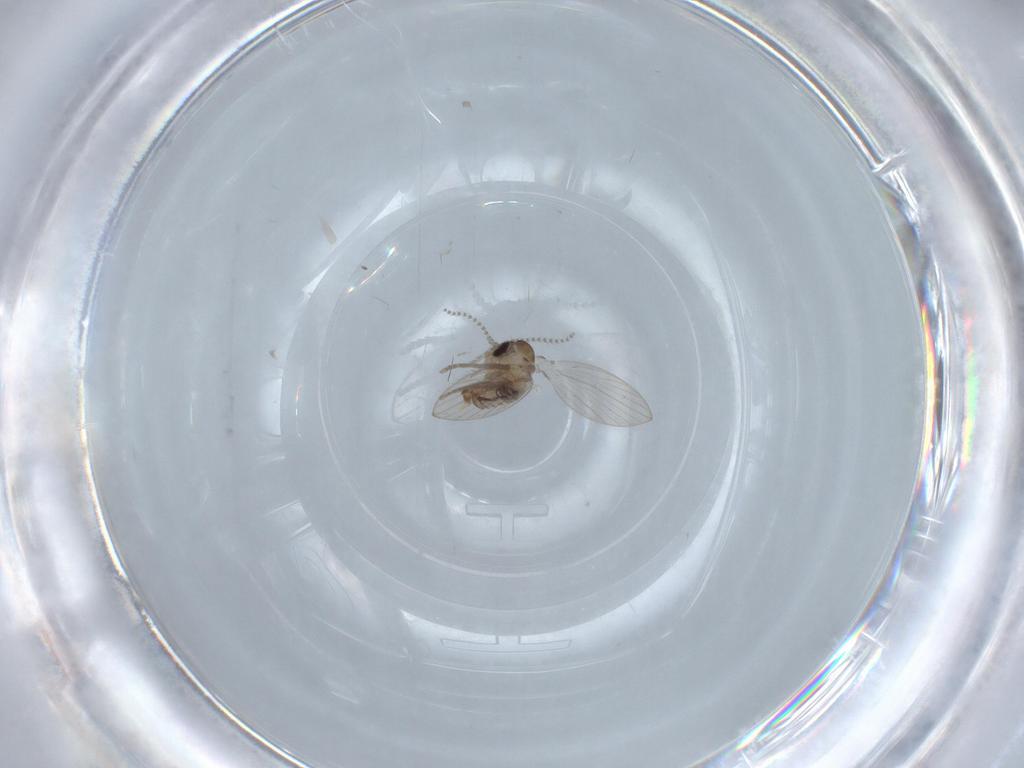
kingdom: Animalia
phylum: Arthropoda
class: Insecta
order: Diptera
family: Psychodidae
